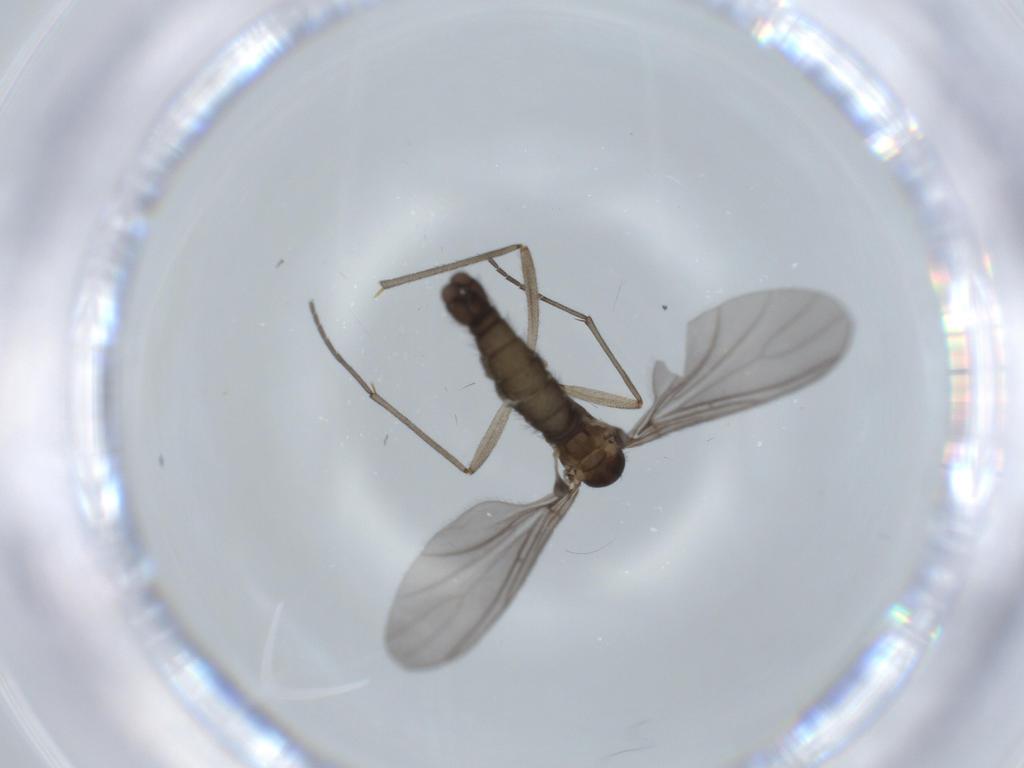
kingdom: Animalia
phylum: Arthropoda
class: Insecta
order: Diptera
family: Sciaridae
